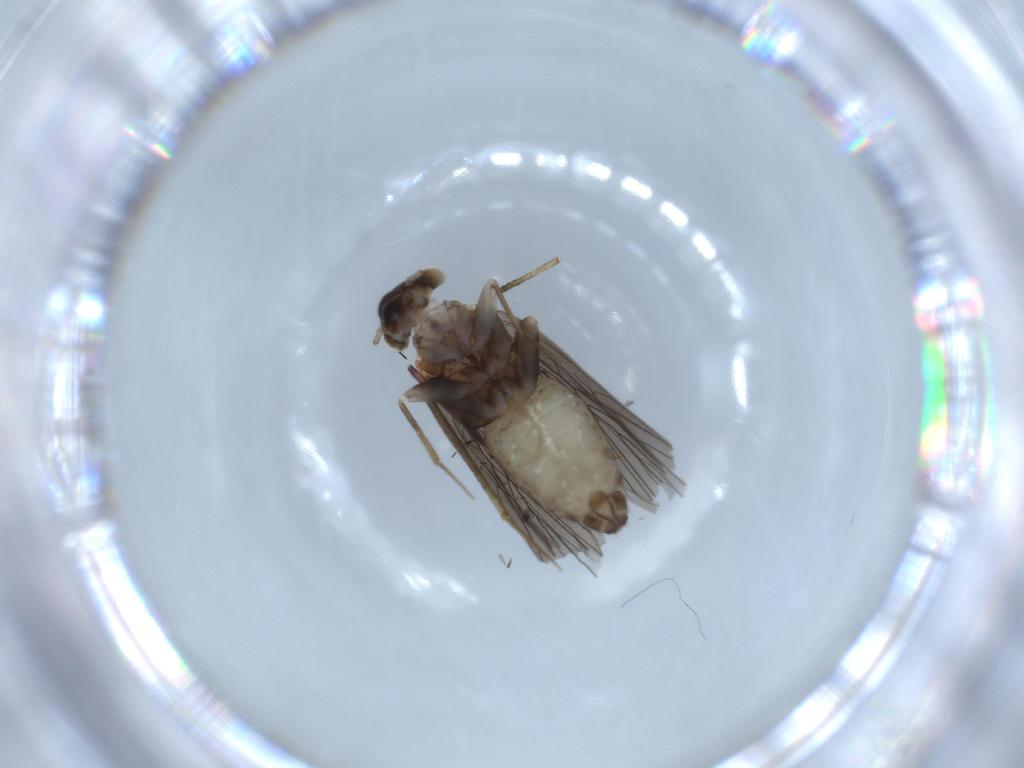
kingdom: Animalia
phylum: Arthropoda
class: Insecta
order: Psocodea
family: Lepidopsocidae
